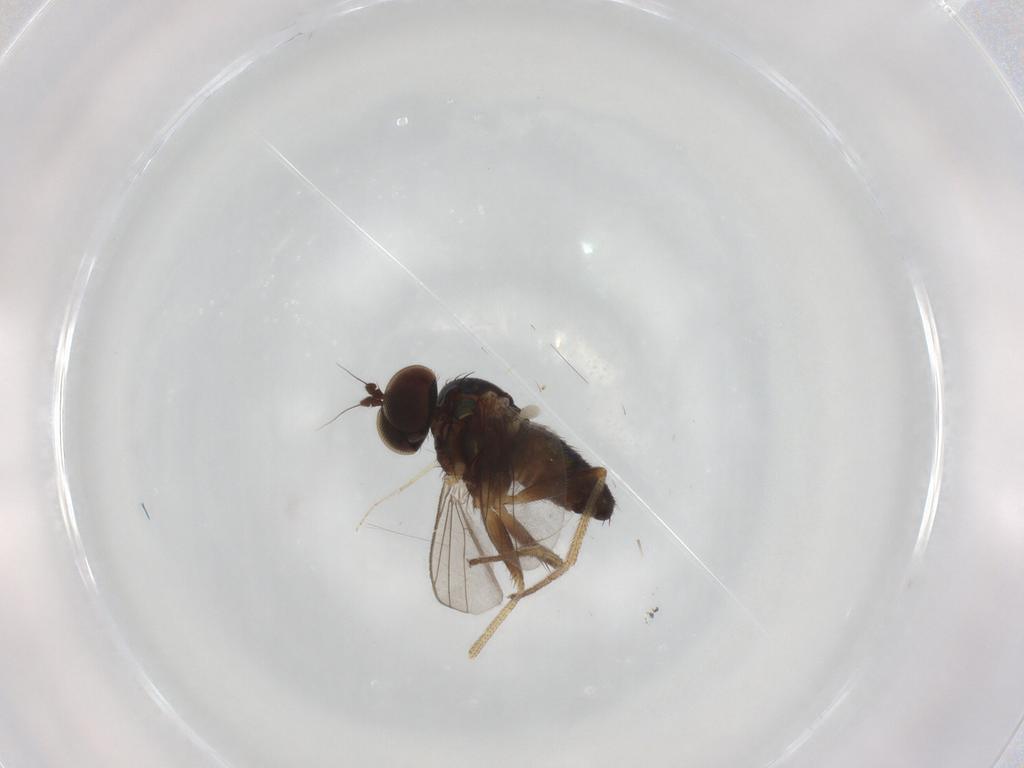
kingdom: Animalia
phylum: Arthropoda
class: Insecta
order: Diptera
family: Dolichopodidae
